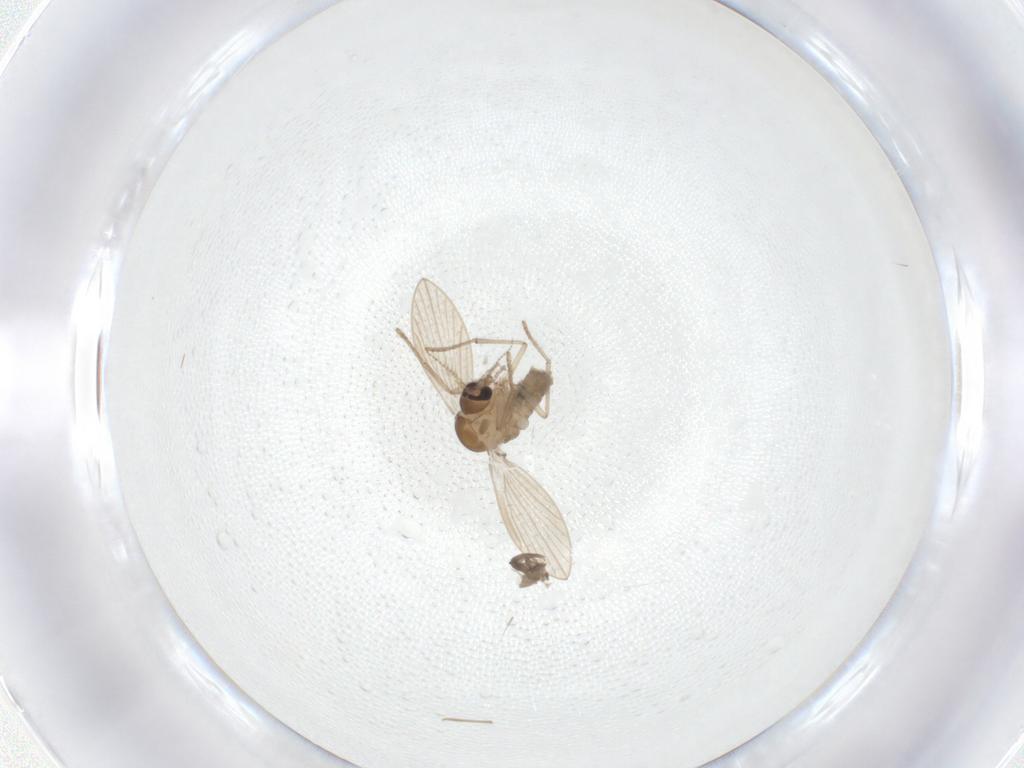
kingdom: Animalia
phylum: Arthropoda
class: Insecta
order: Diptera
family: Psychodidae
